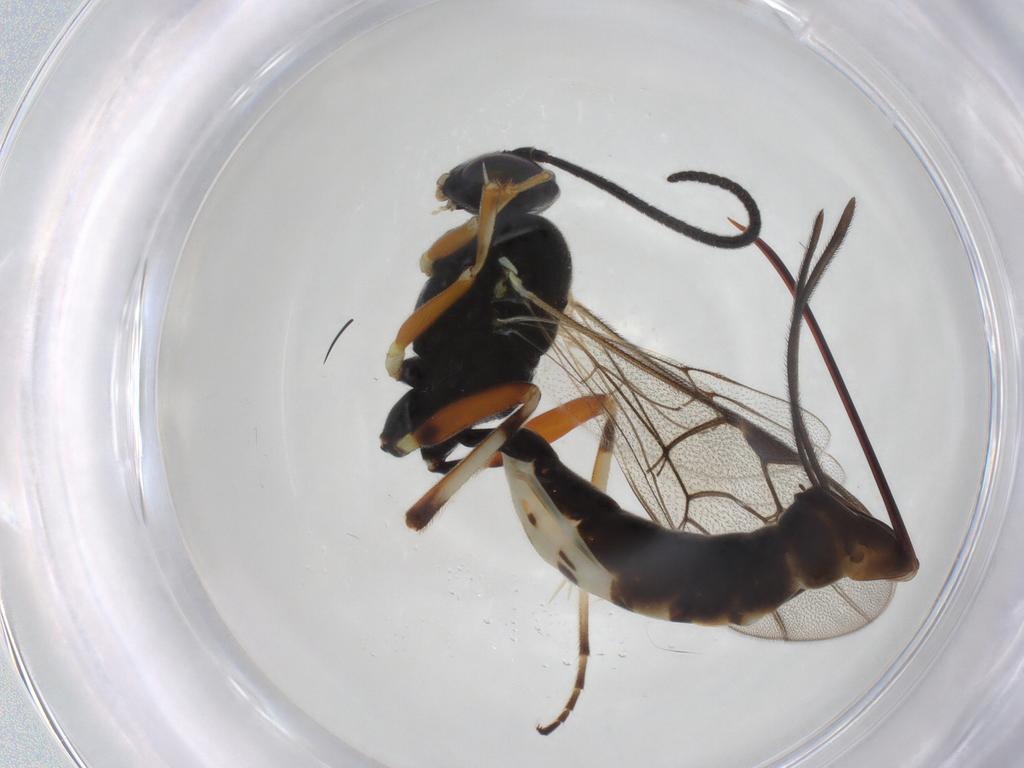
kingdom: Animalia
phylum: Arthropoda
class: Insecta
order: Hymenoptera
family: Ichneumonidae
